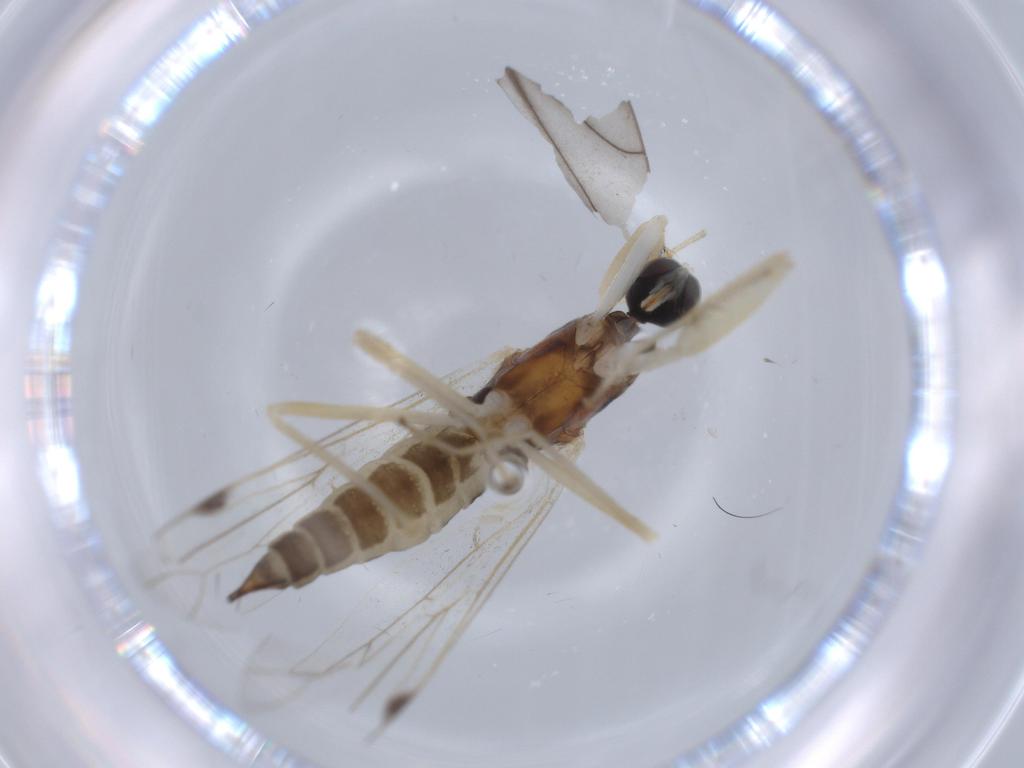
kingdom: Animalia
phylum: Arthropoda
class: Insecta
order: Diptera
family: Empididae
